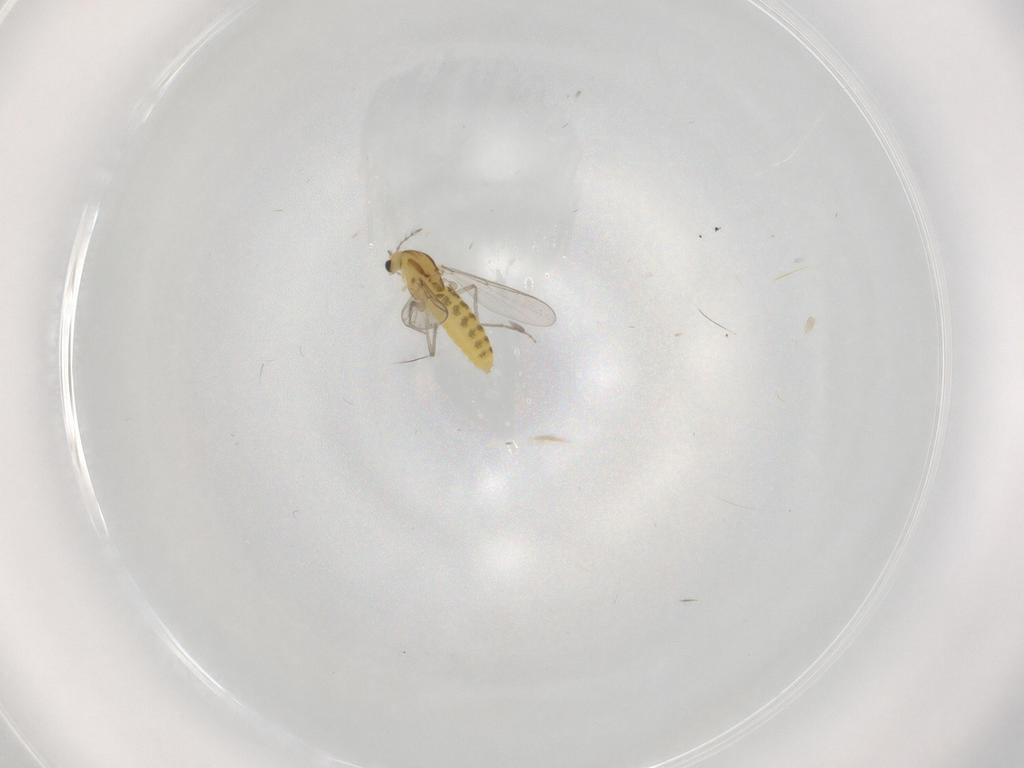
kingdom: Animalia
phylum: Arthropoda
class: Insecta
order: Diptera
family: Chironomidae
